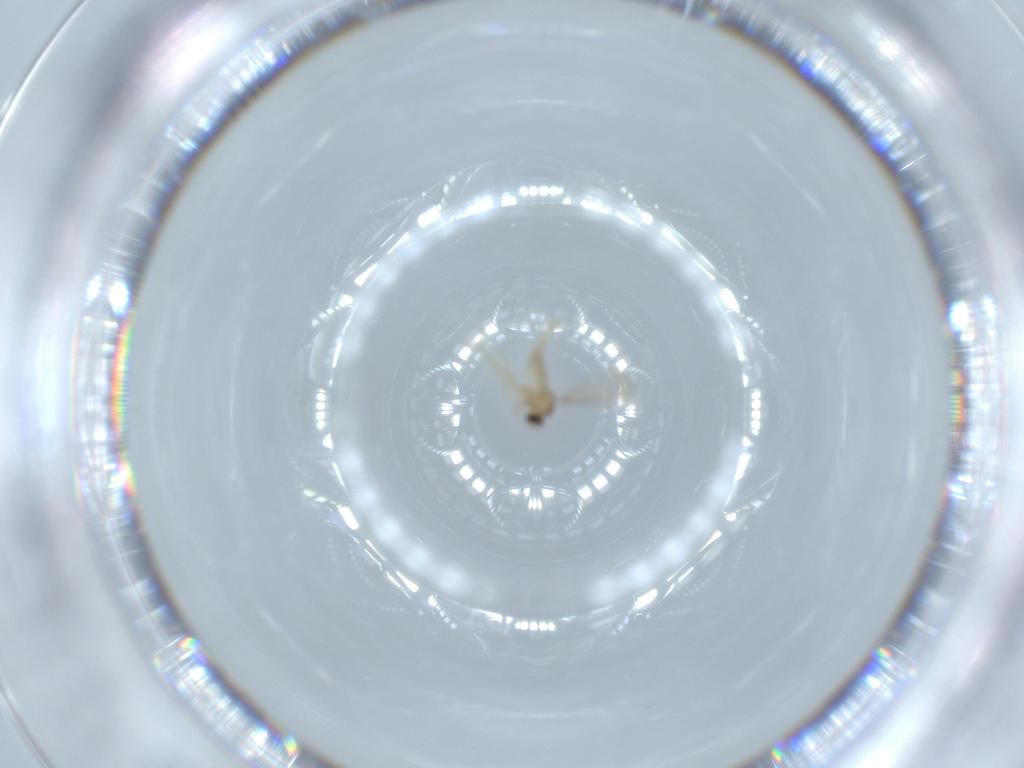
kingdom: Animalia
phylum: Arthropoda
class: Insecta
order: Diptera
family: Cecidomyiidae
